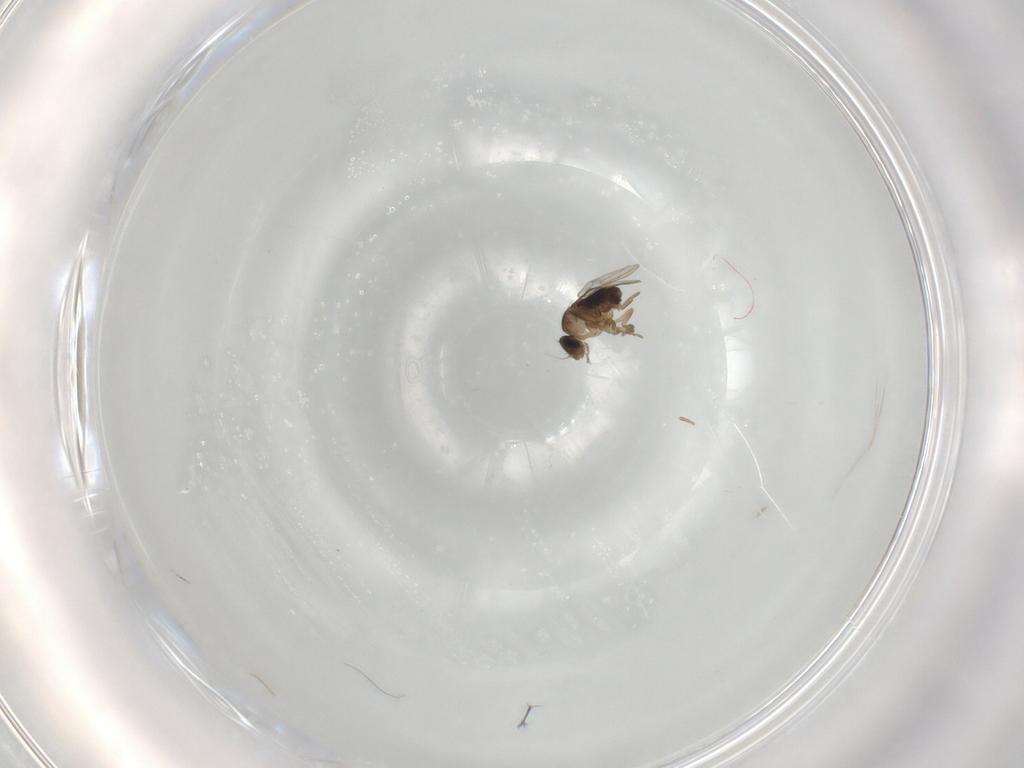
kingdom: Animalia
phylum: Arthropoda
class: Insecta
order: Diptera
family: Phoridae
